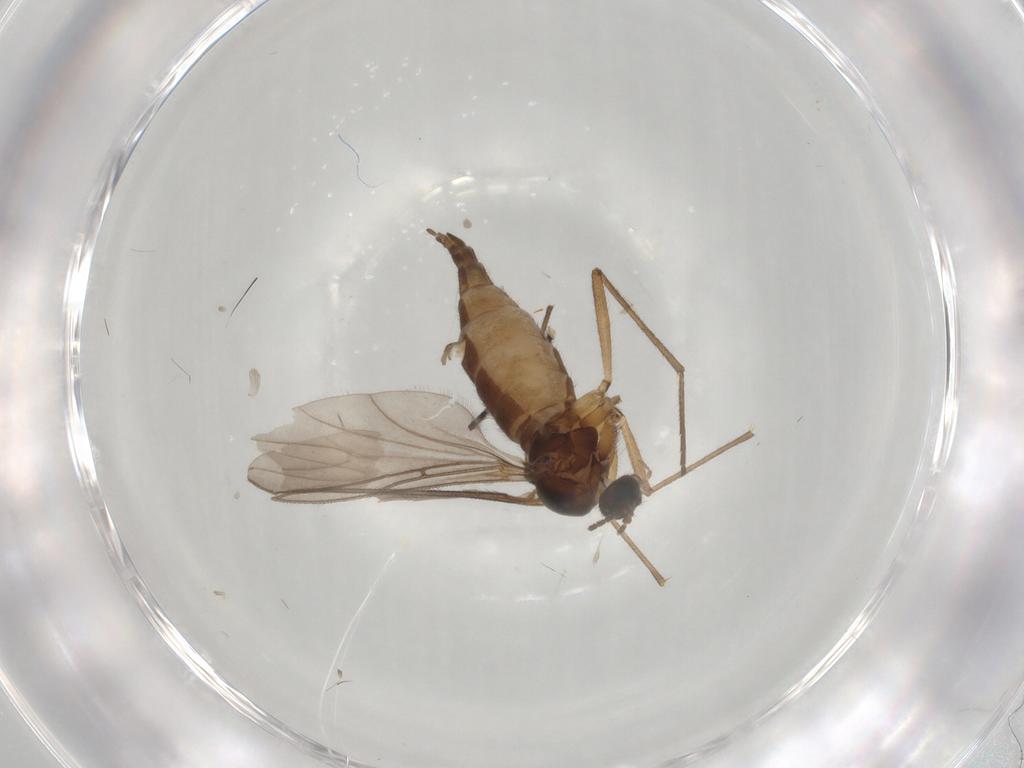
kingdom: Animalia
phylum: Arthropoda
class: Insecta
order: Diptera
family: Sciaridae
